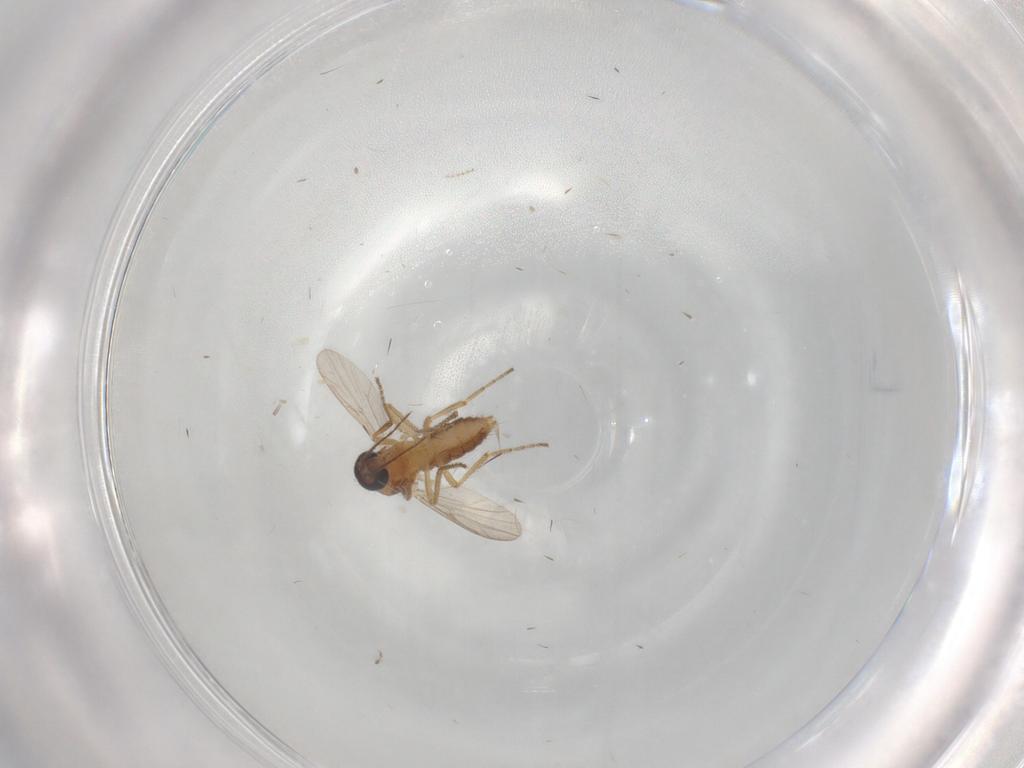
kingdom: Animalia
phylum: Arthropoda
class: Insecta
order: Diptera
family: Ceratopogonidae
